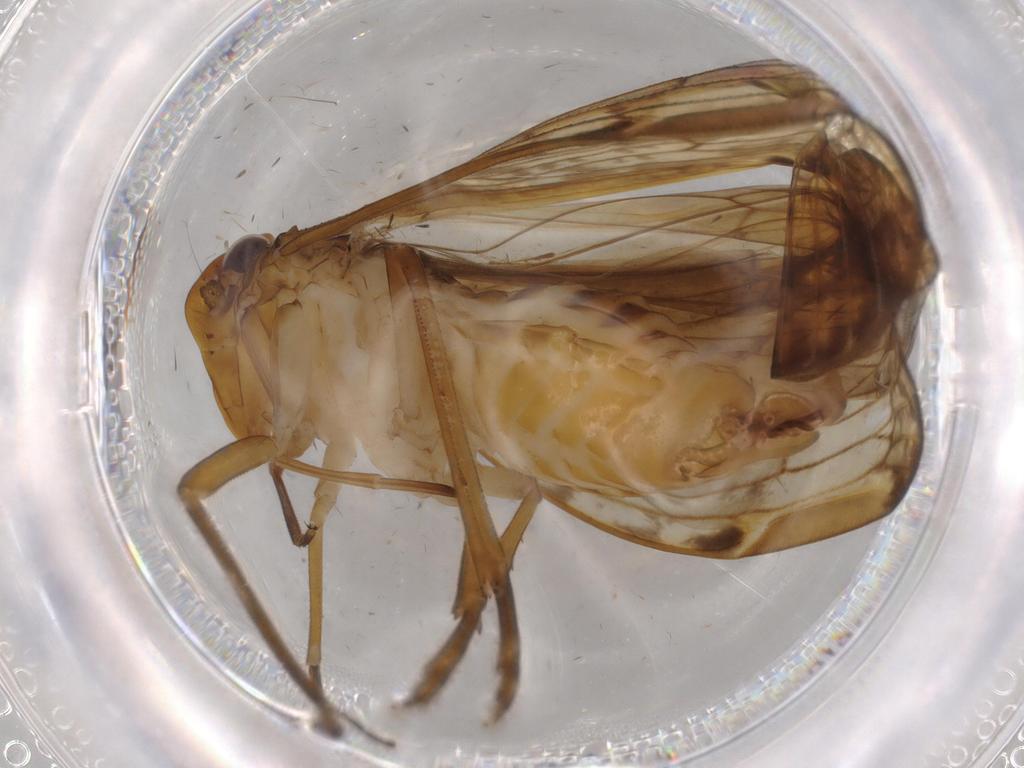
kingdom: Animalia
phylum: Arthropoda
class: Insecta
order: Hemiptera
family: Cixiidae
